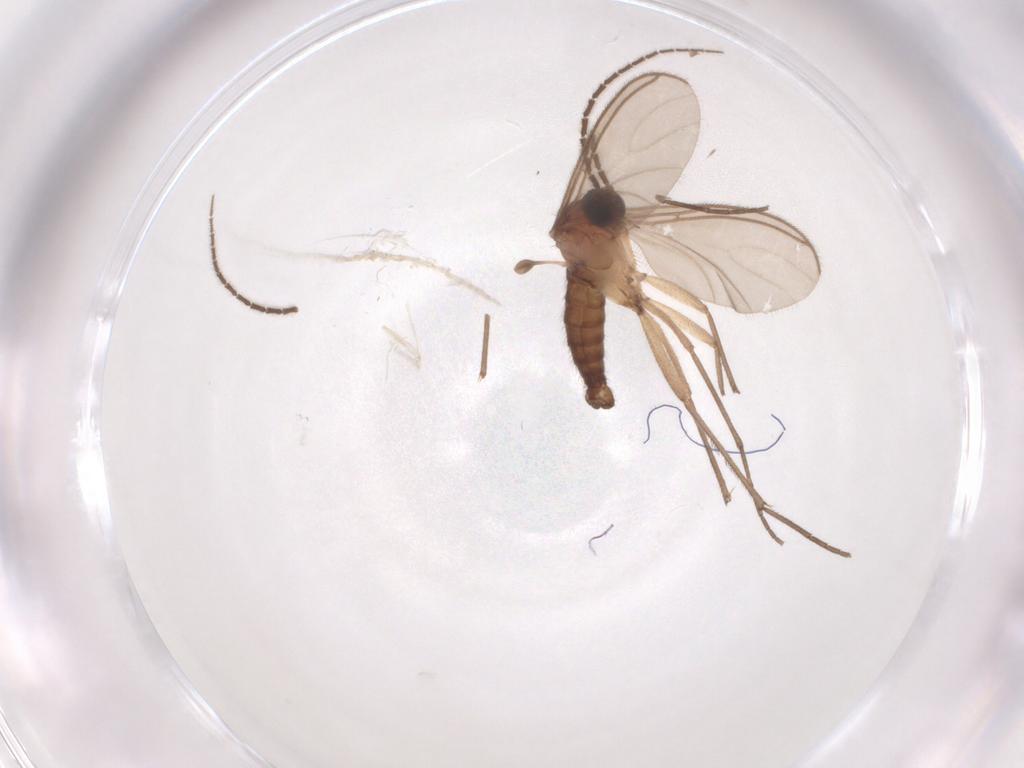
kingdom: Animalia
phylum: Arthropoda
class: Insecta
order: Diptera
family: Sciaridae
